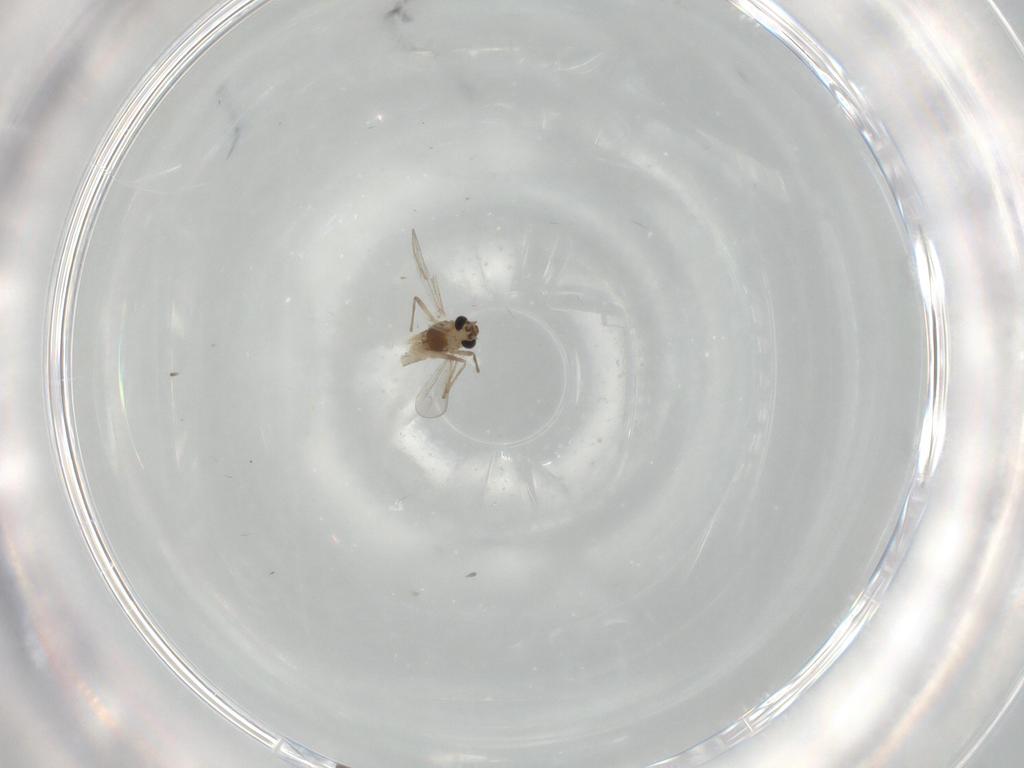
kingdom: Animalia
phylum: Arthropoda
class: Insecta
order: Diptera
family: Chironomidae
